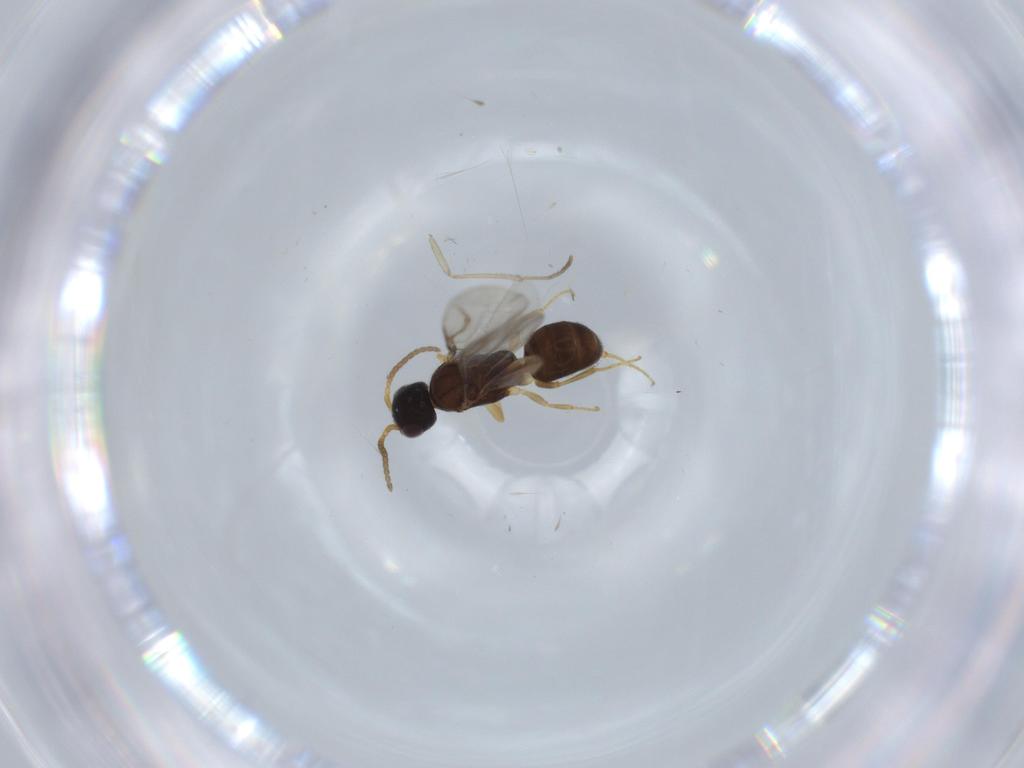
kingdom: Animalia
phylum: Arthropoda
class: Insecta
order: Hymenoptera
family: Bethylidae
